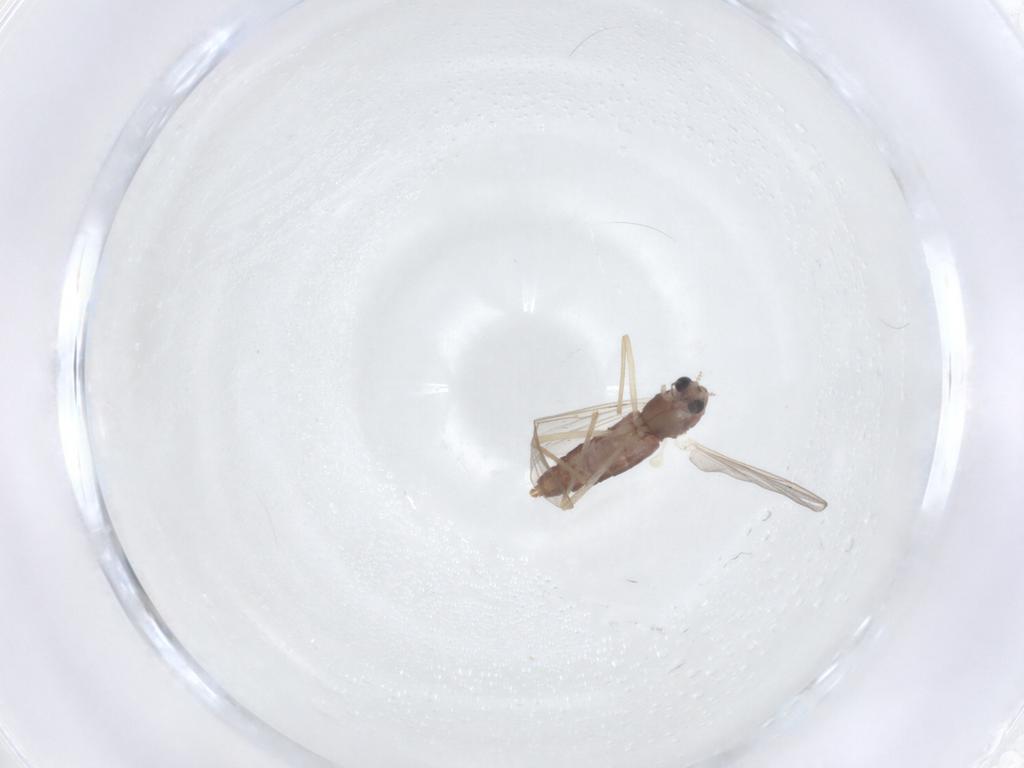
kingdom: Animalia
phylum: Arthropoda
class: Insecta
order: Diptera
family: Chironomidae
